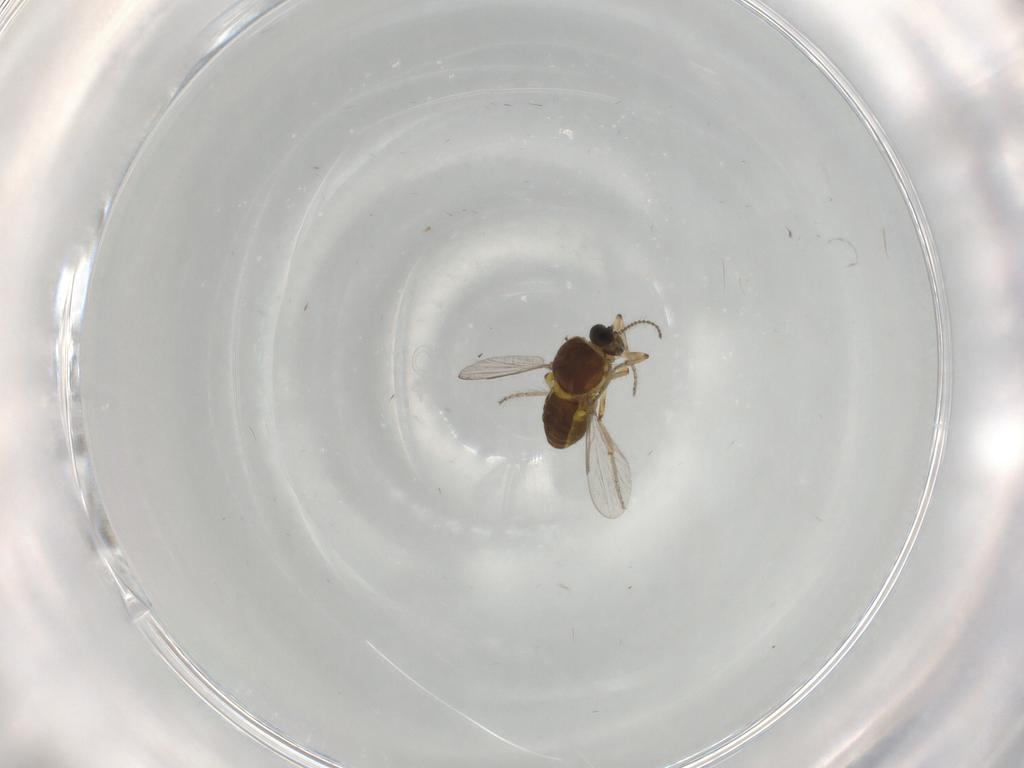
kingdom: Animalia
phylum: Arthropoda
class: Insecta
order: Diptera
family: Ceratopogonidae
